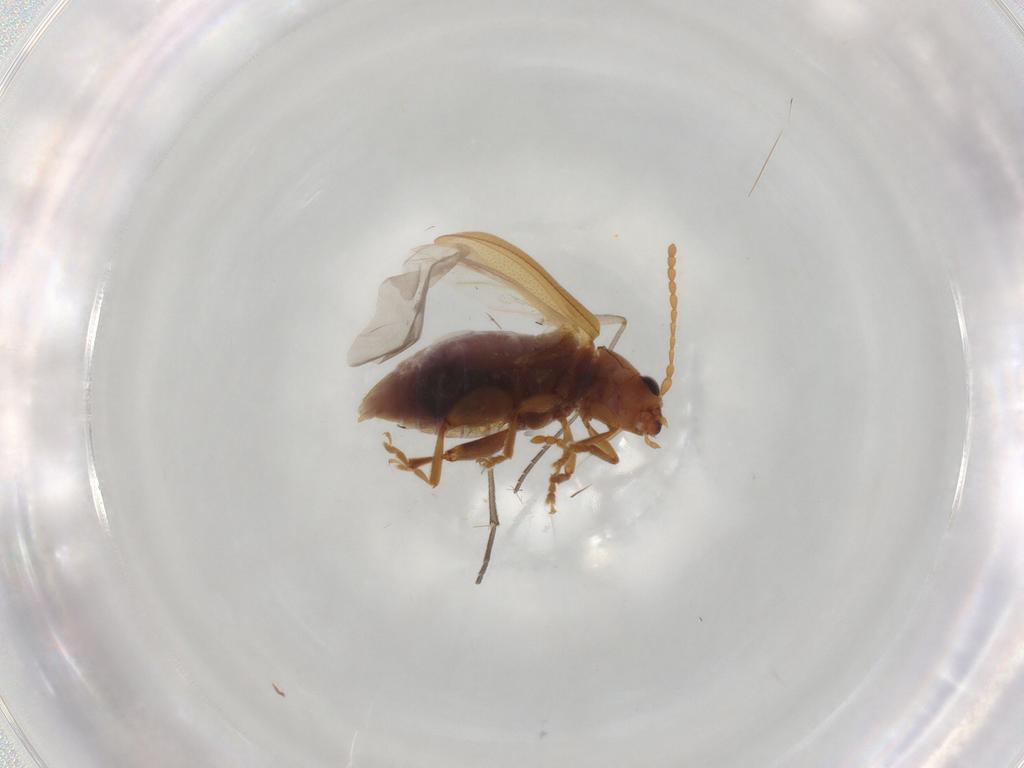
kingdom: Animalia
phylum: Arthropoda
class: Insecta
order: Coleoptera
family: Chrysomelidae
